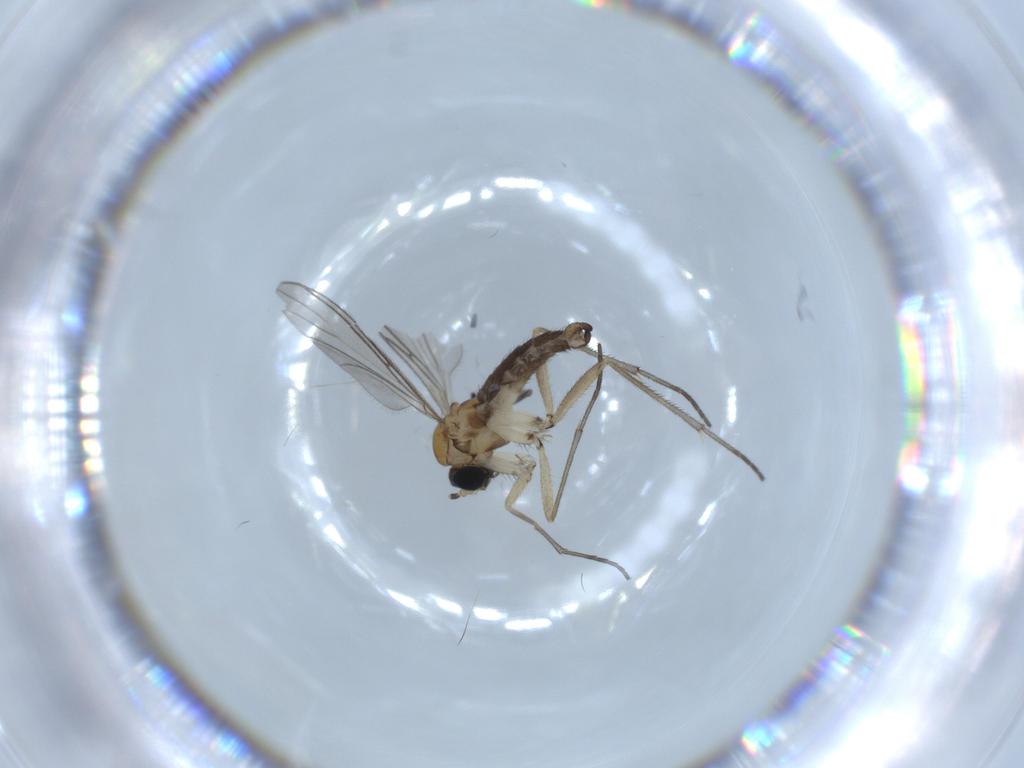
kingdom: Animalia
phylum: Arthropoda
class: Insecta
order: Diptera
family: Sciaridae
